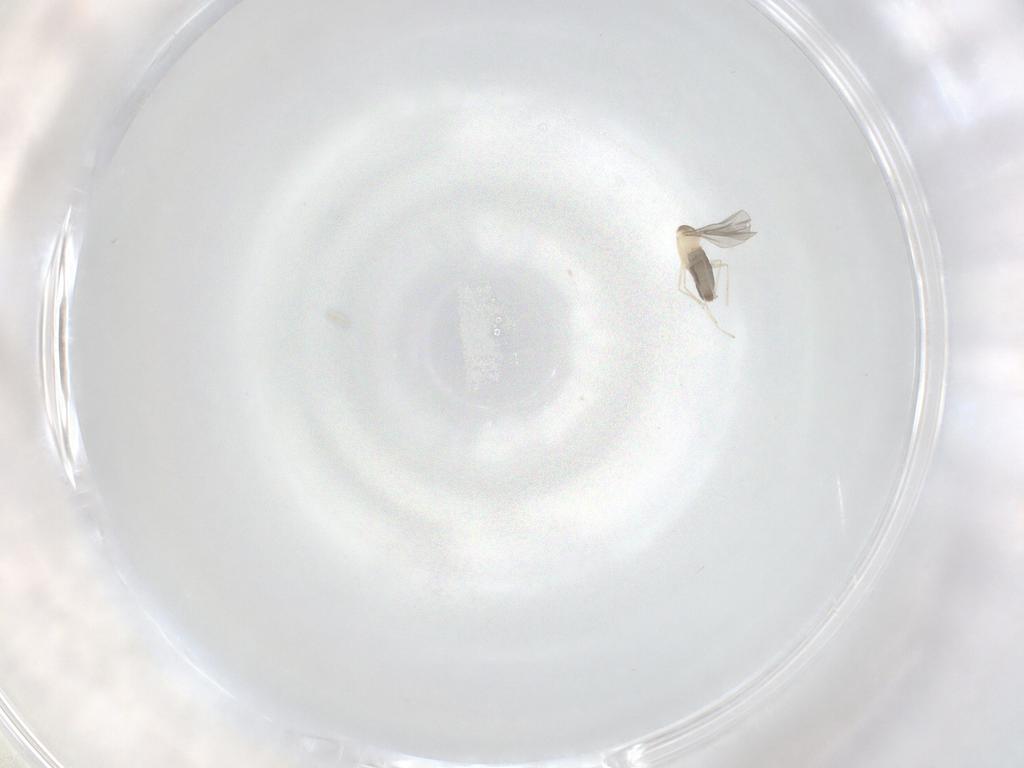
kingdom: Animalia
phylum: Arthropoda
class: Insecta
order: Diptera
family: Cecidomyiidae
